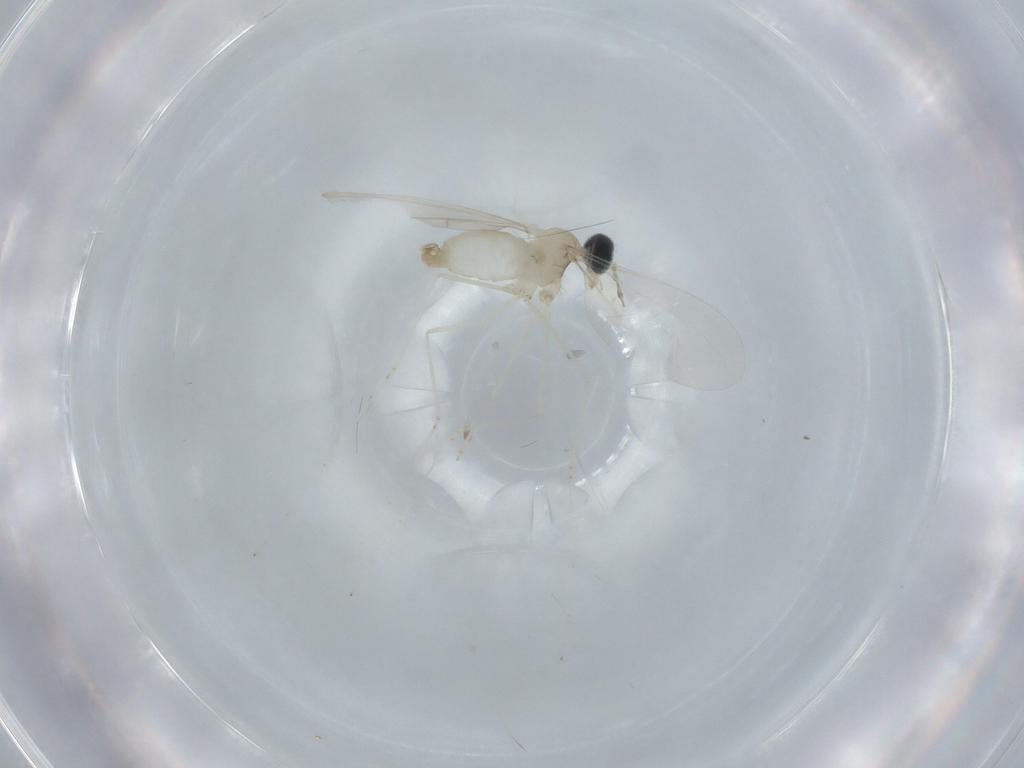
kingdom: Animalia
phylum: Arthropoda
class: Insecta
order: Diptera
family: Cecidomyiidae
